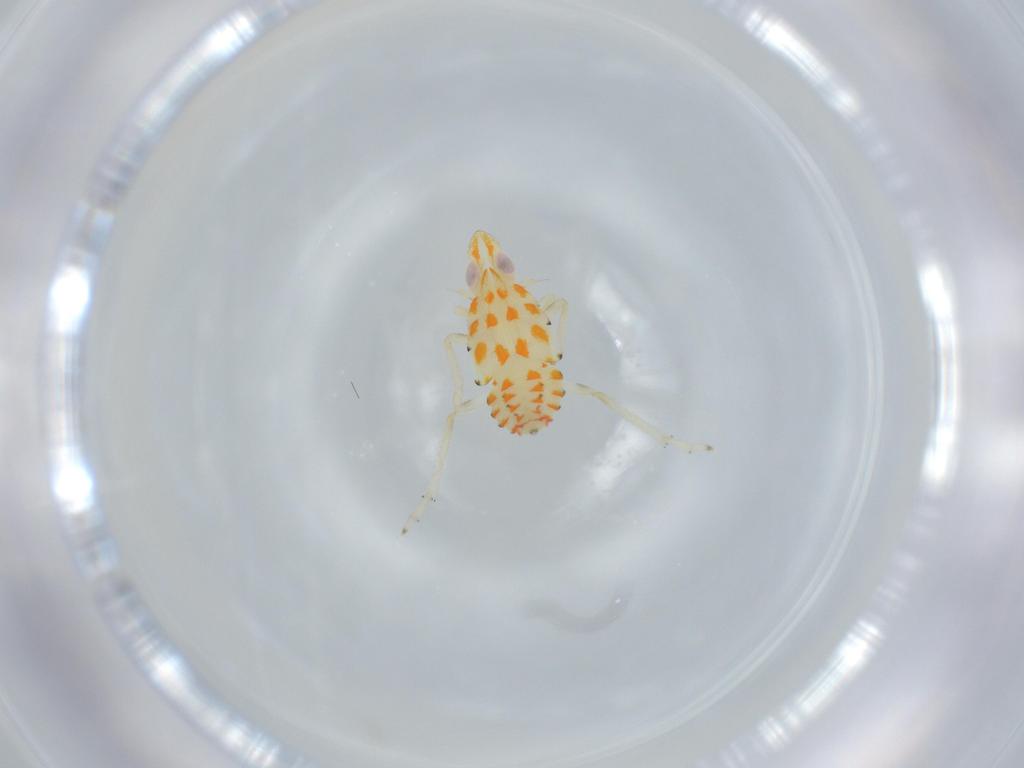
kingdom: Animalia
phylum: Arthropoda
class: Insecta
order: Hemiptera
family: Tropiduchidae
